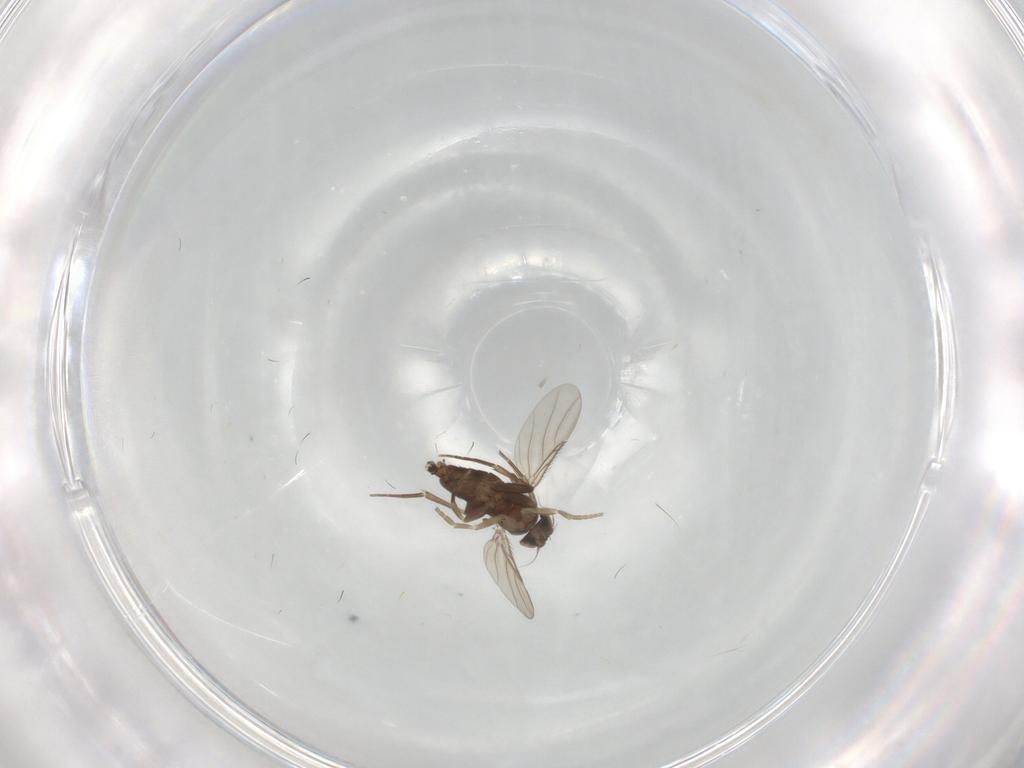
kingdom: Animalia
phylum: Arthropoda
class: Insecta
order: Diptera
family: Phoridae
